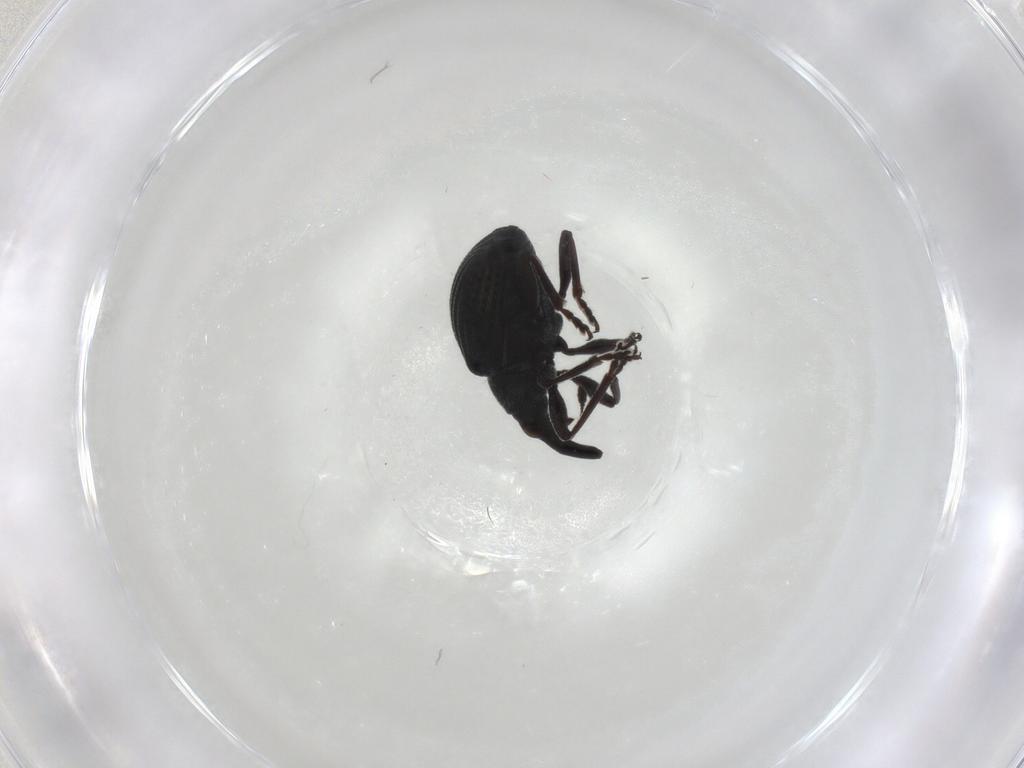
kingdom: Animalia
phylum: Arthropoda
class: Insecta
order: Coleoptera
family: Brentidae
